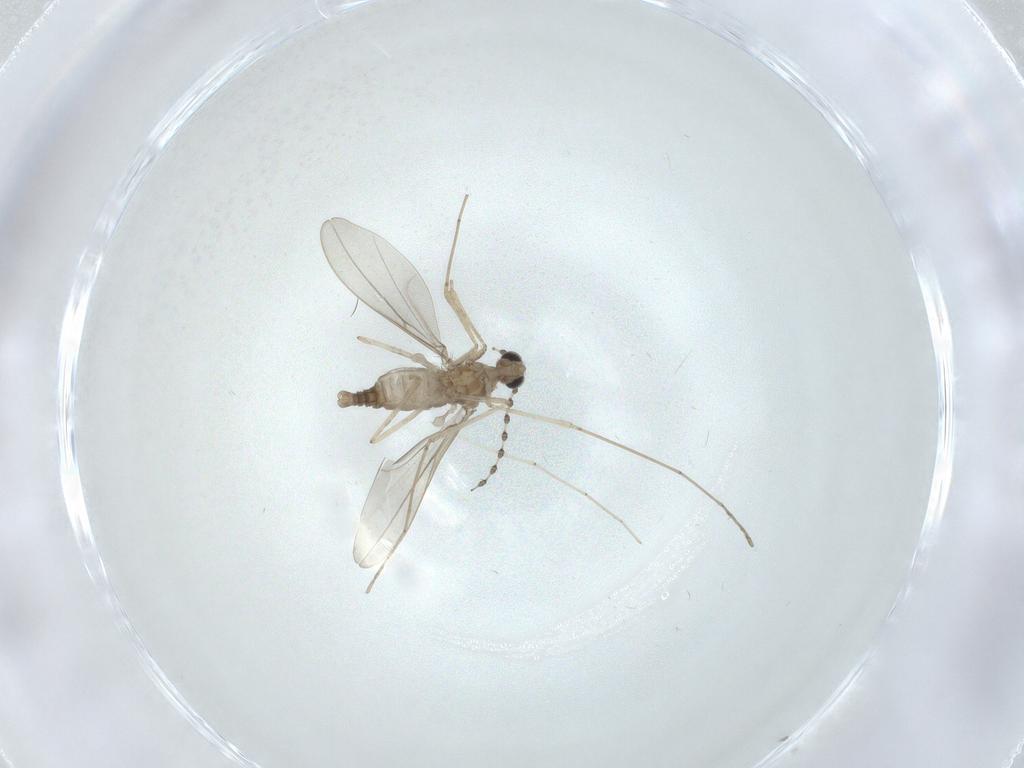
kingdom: Animalia
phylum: Arthropoda
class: Insecta
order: Diptera
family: Cecidomyiidae
